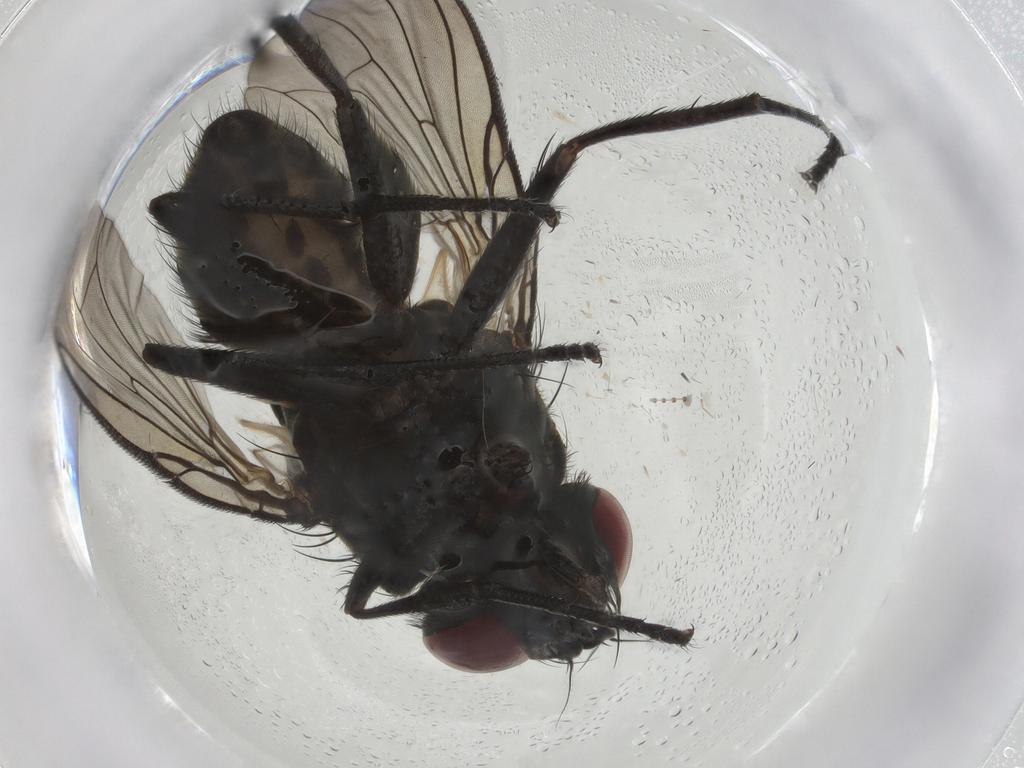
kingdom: Animalia
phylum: Arthropoda
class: Insecta
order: Diptera
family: Muscidae
